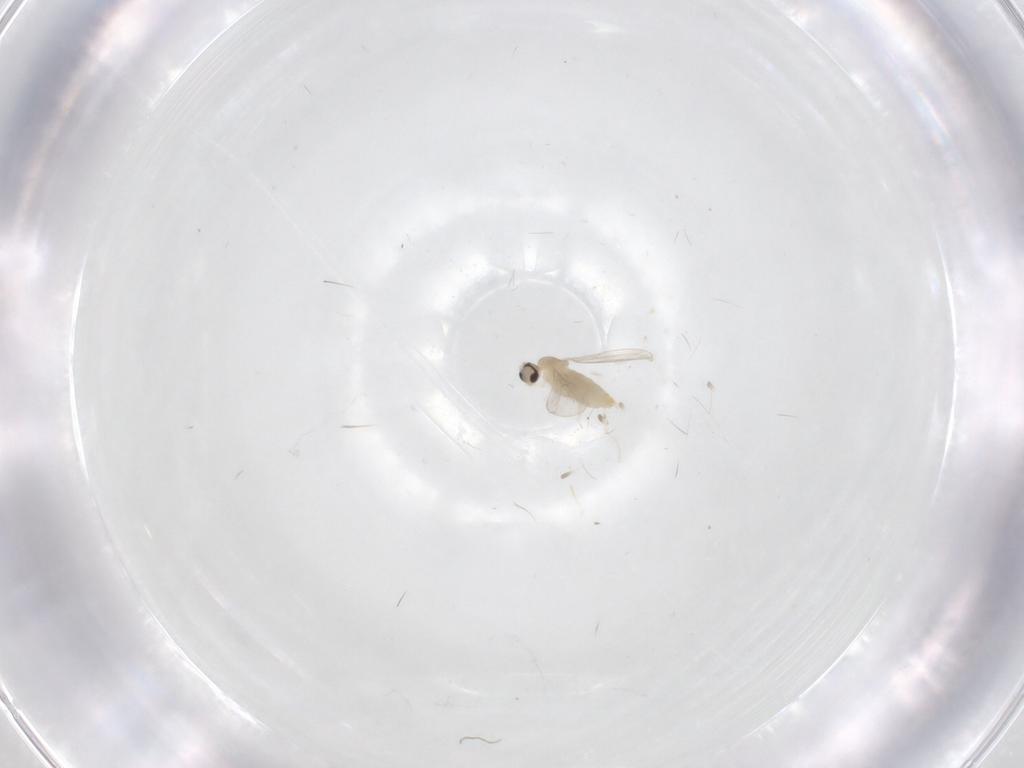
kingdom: Animalia
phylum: Arthropoda
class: Insecta
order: Diptera
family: Cecidomyiidae
